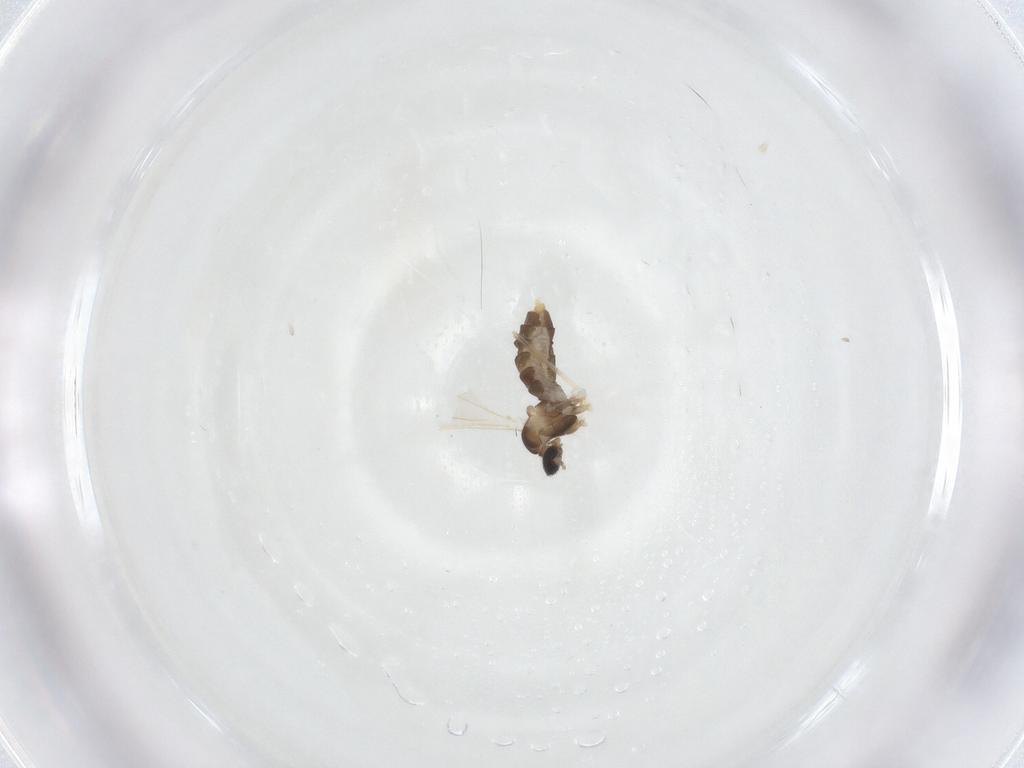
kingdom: Animalia
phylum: Arthropoda
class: Insecta
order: Diptera
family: Cecidomyiidae
